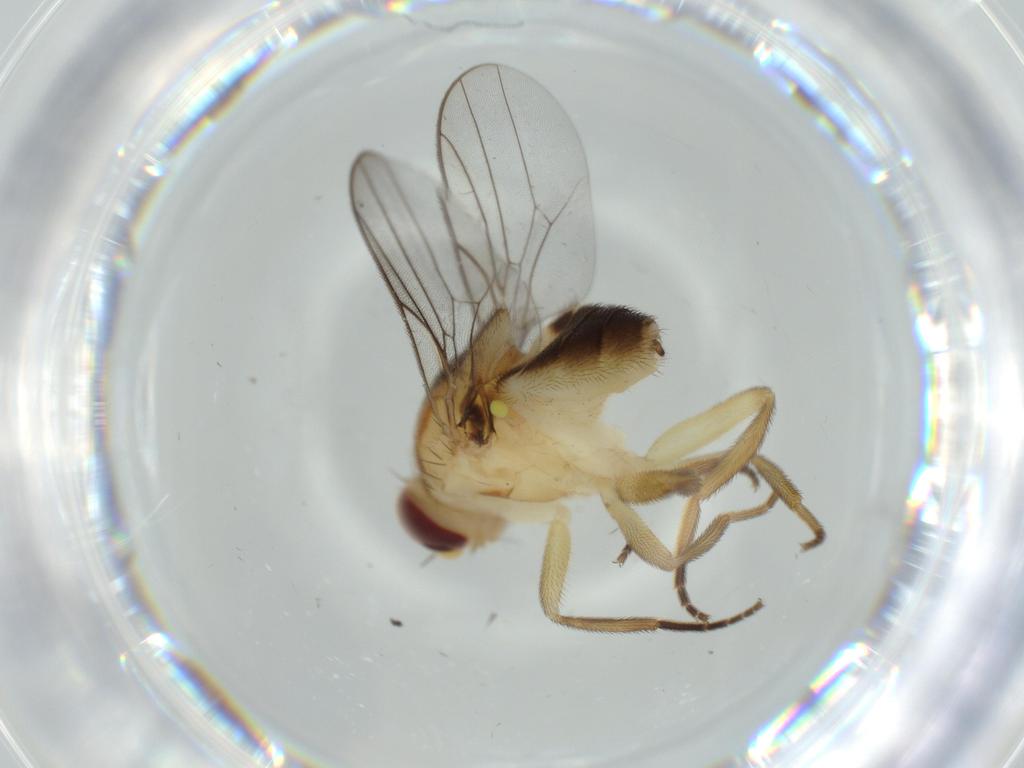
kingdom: Animalia
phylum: Arthropoda
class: Insecta
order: Diptera
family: Chloropidae
